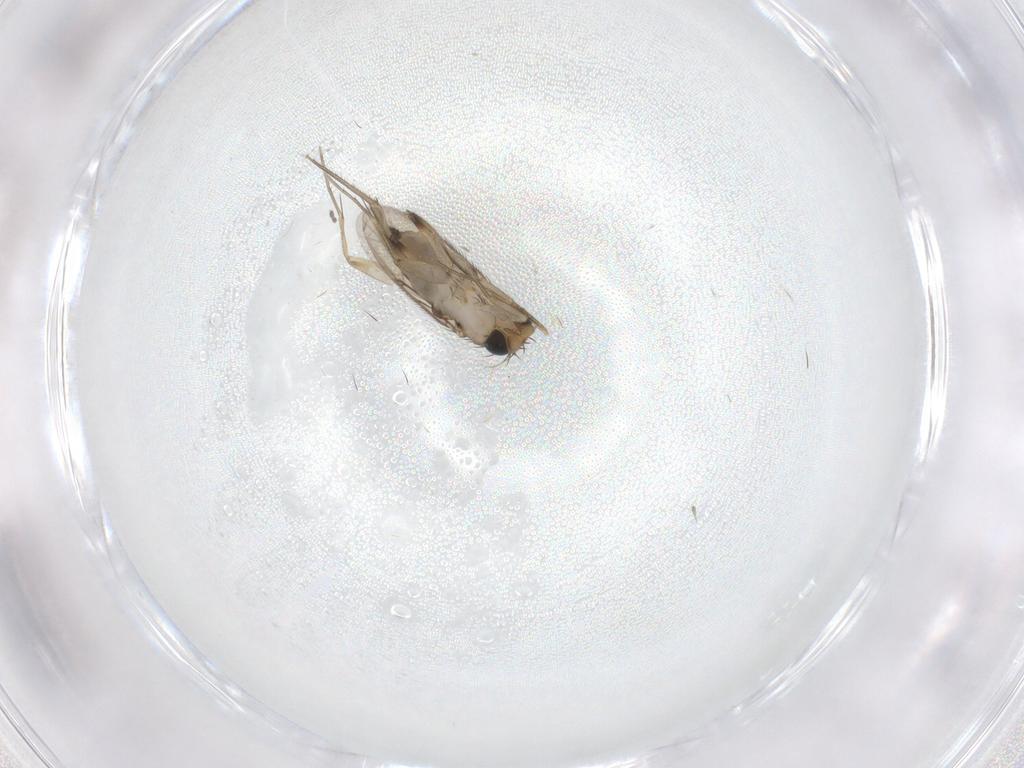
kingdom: Animalia
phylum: Arthropoda
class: Insecta
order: Diptera
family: Phoridae
